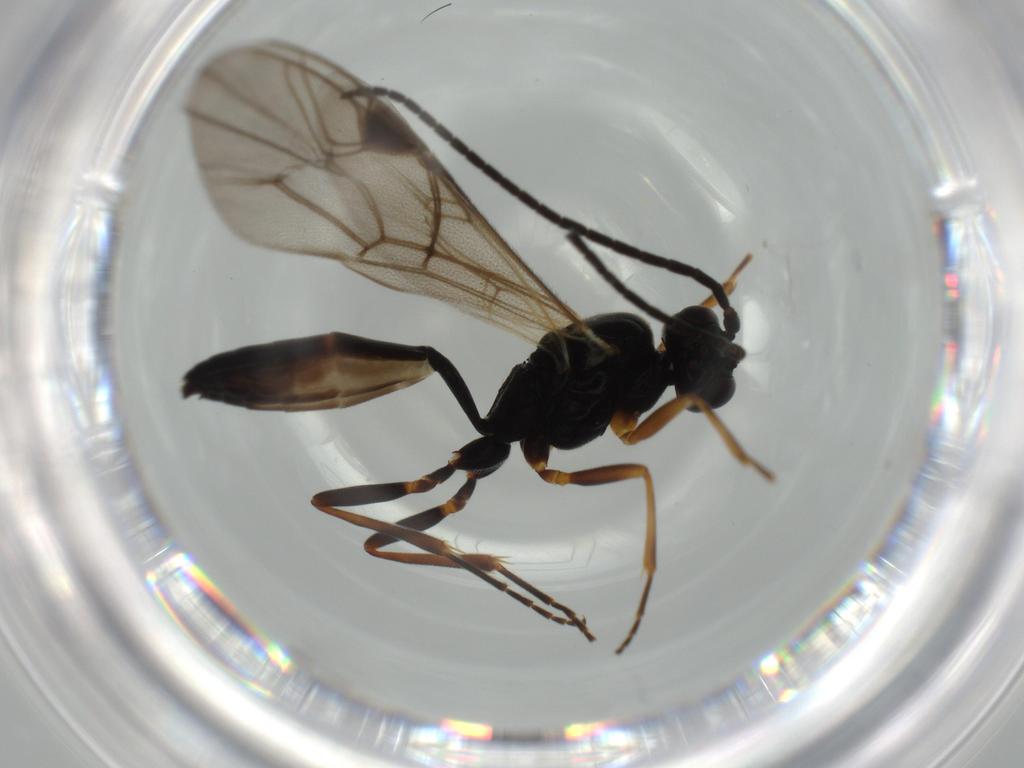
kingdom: Animalia
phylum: Arthropoda
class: Insecta
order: Hymenoptera
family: Ichneumonidae
